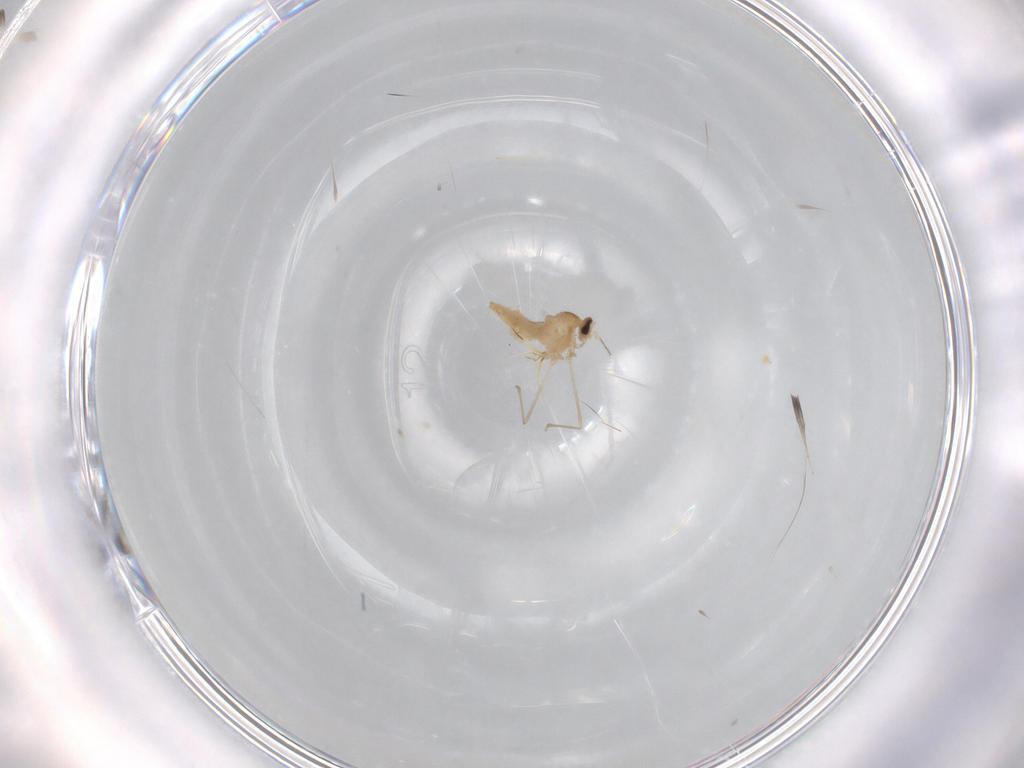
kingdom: Animalia
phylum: Arthropoda
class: Insecta
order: Diptera
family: Cecidomyiidae
